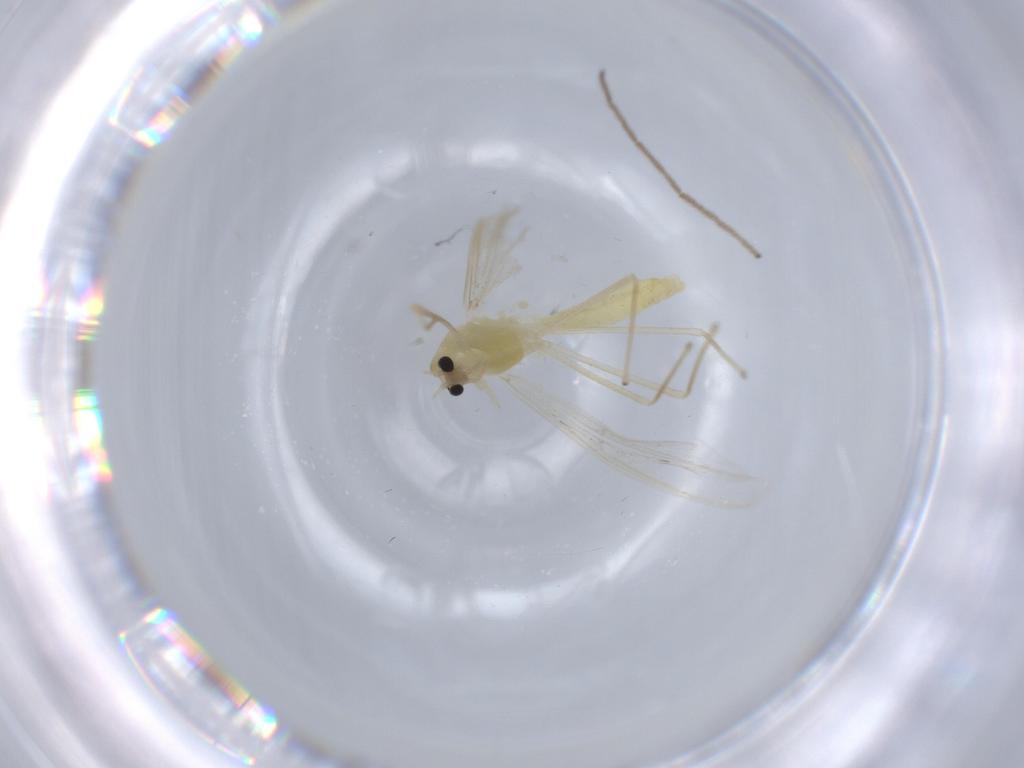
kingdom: Animalia
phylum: Arthropoda
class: Insecta
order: Diptera
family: Chironomidae
